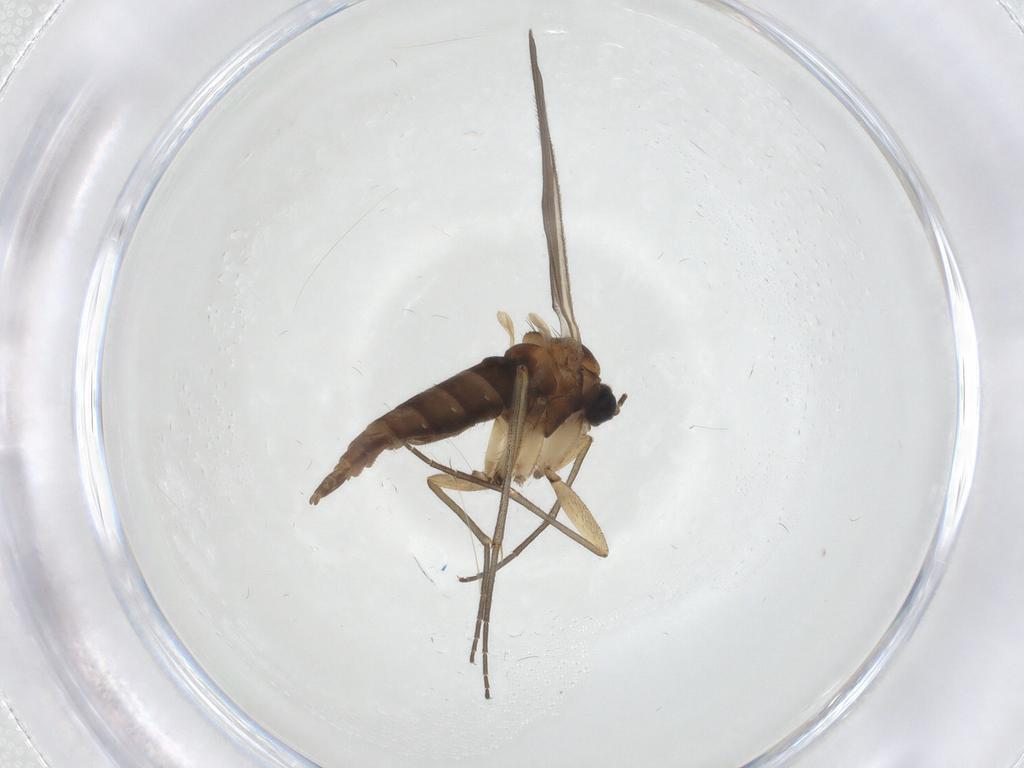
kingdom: Animalia
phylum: Arthropoda
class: Insecta
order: Diptera
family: Sciaridae
